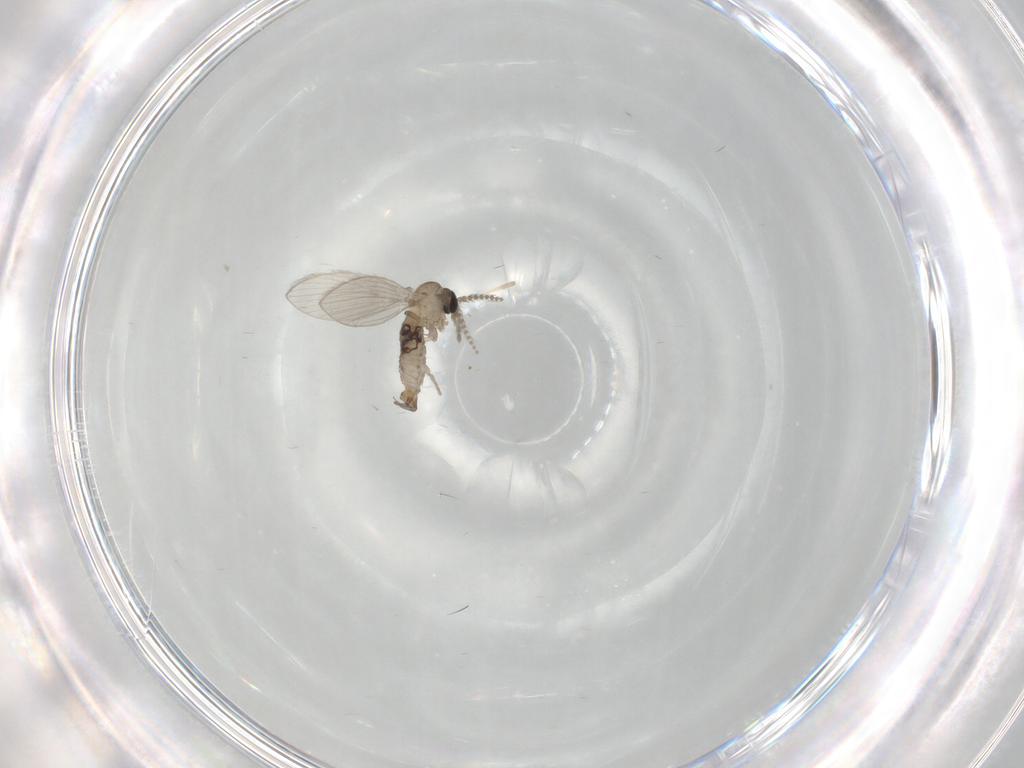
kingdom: Animalia
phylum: Arthropoda
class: Insecta
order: Diptera
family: Psychodidae
